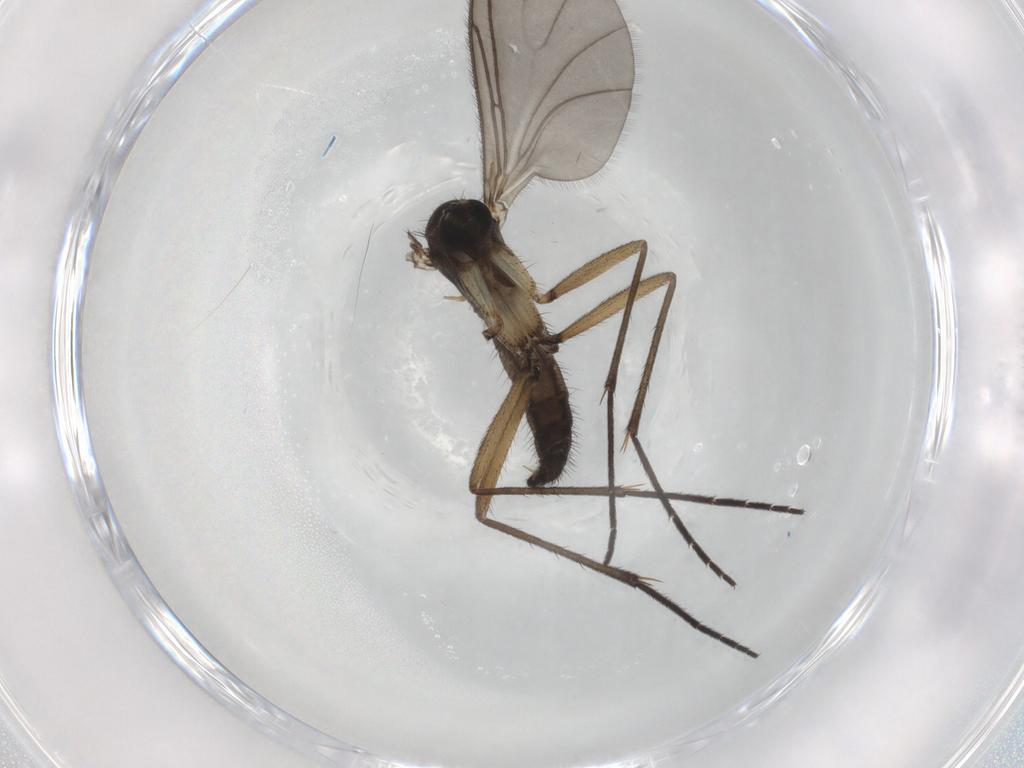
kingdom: Animalia
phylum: Arthropoda
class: Insecta
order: Diptera
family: Sciaridae
